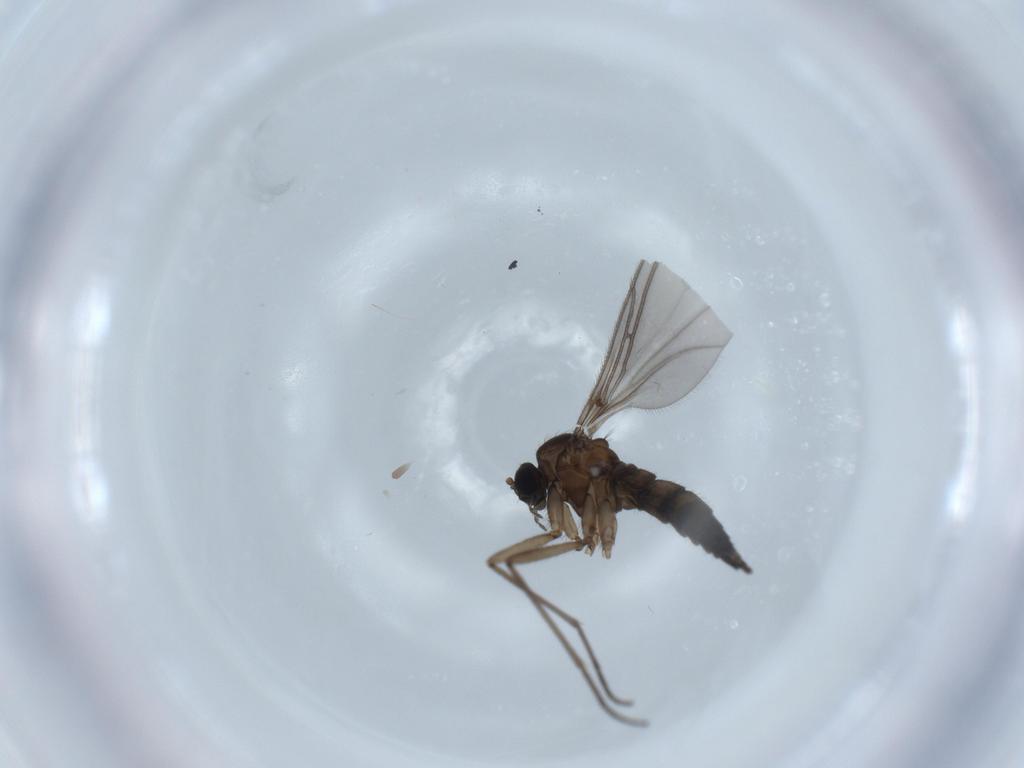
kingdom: Animalia
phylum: Arthropoda
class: Insecta
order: Diptera
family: Sciaridae
